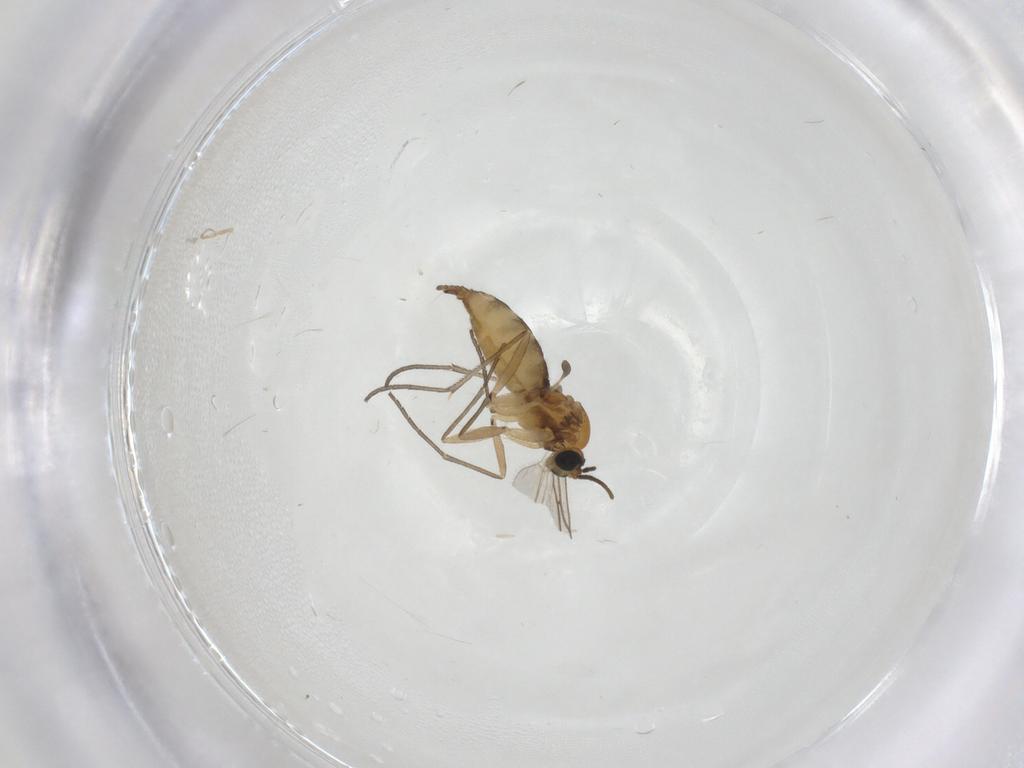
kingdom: Animalia
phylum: Arthropoda
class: Insecta
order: Diptera
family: Sciaridae
